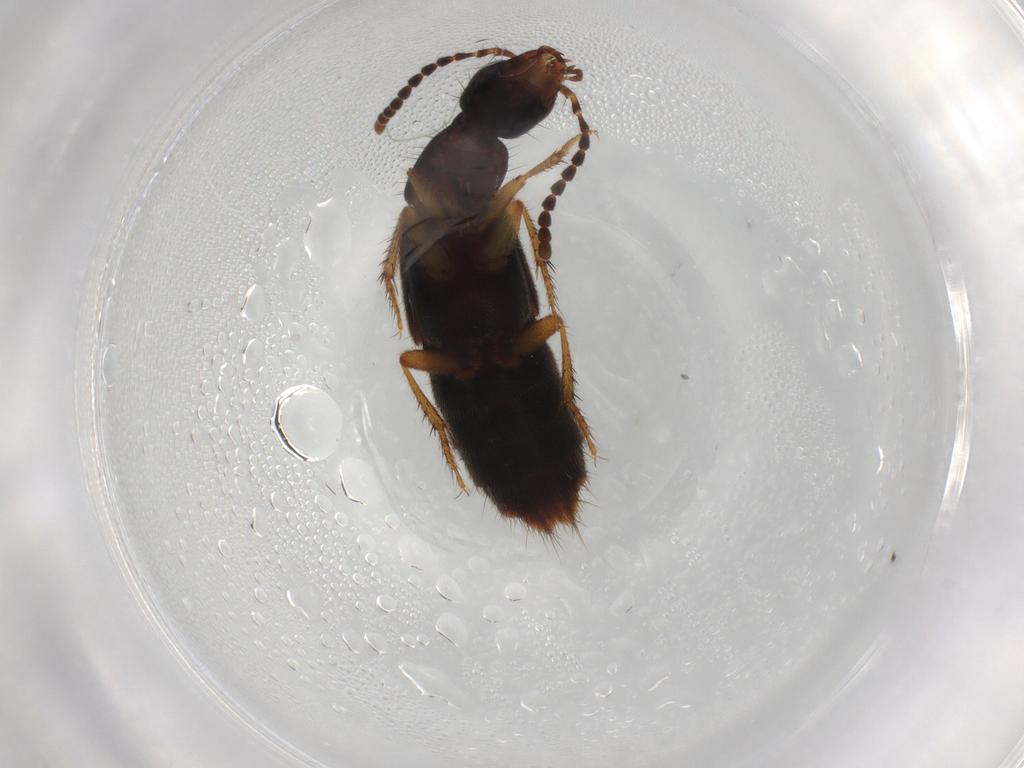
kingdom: Animalia
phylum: Arthropoda
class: Insecta
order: Coleoptera
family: Staphylinidae
